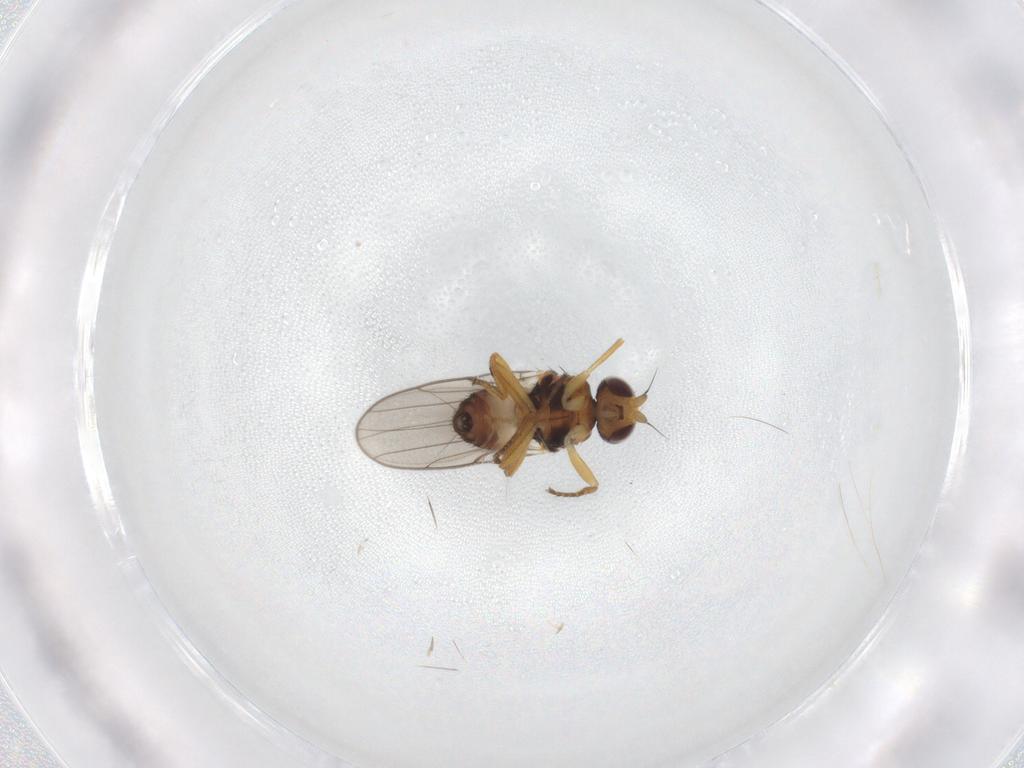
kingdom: Animalia
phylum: Arthropoda
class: Insecta
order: Diptera
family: Chloropidae
